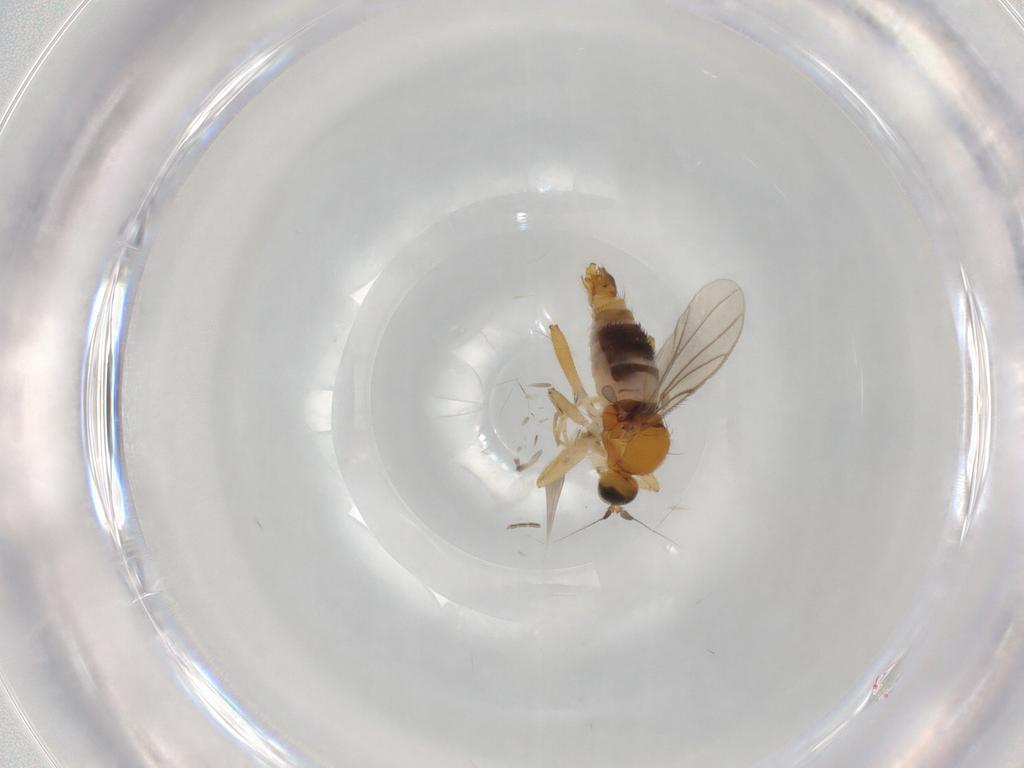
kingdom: Animalia
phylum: Arthropoda
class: Insecta
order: Diptera
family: Hybotidae
